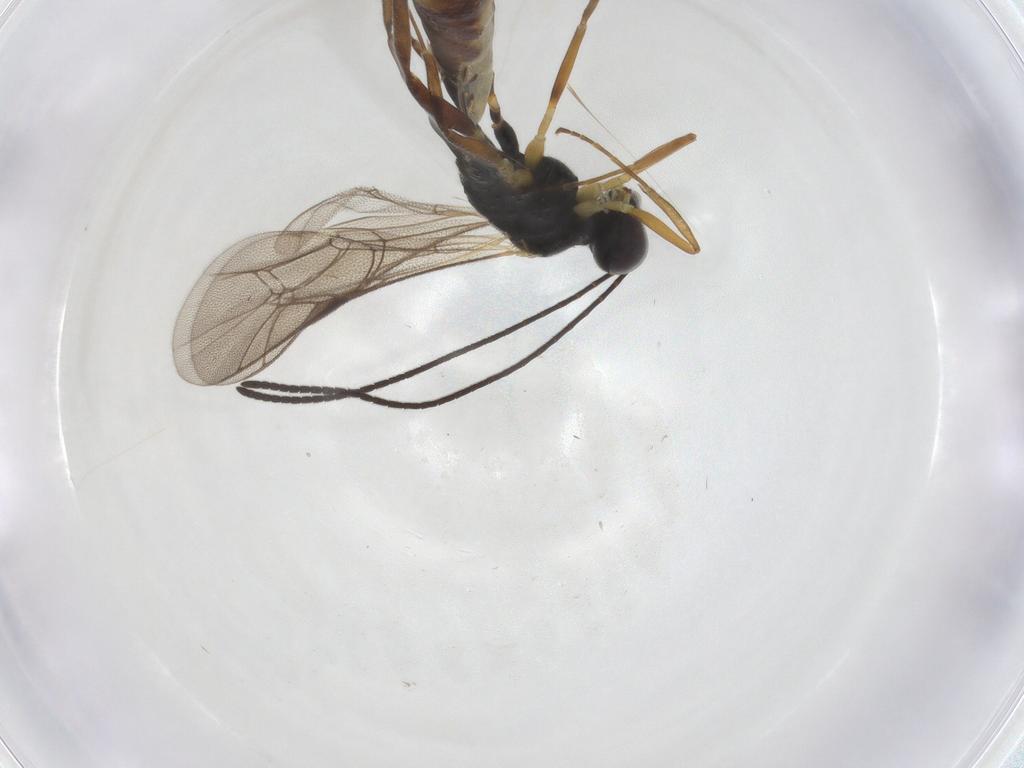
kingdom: Animalia
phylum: Arthropoda
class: Insecta
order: Hymenoptera
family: Ichneumonidae
